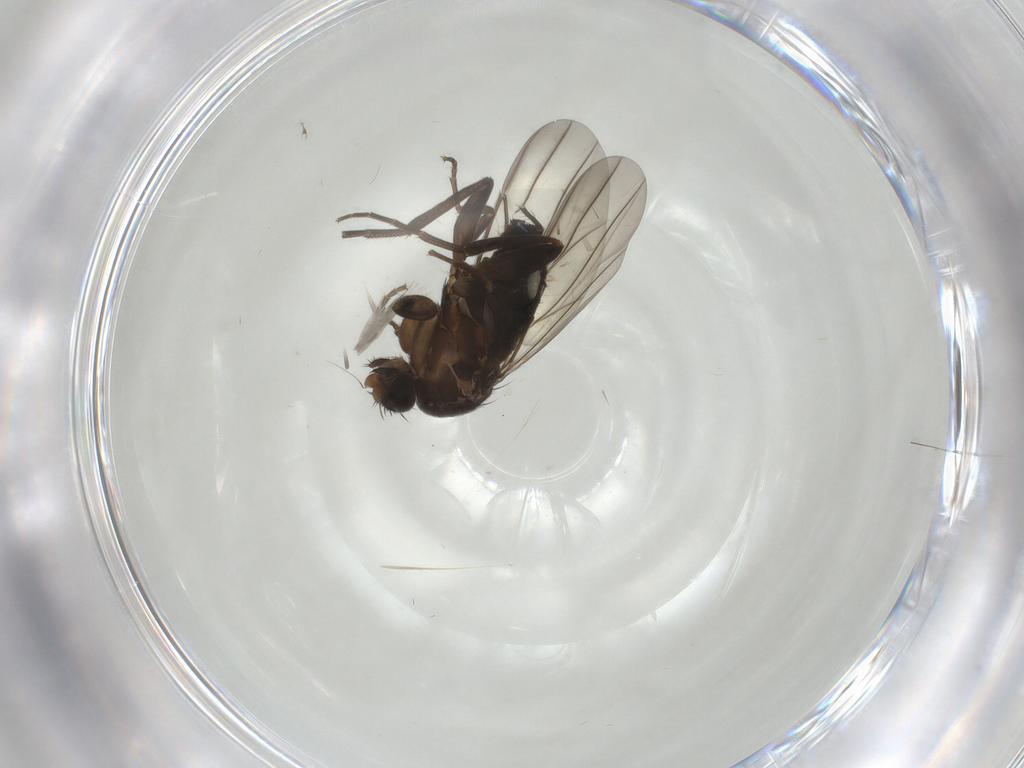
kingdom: Animalia
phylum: Arthropoda
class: Insecta
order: Diptera
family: Cecidomyiidae
